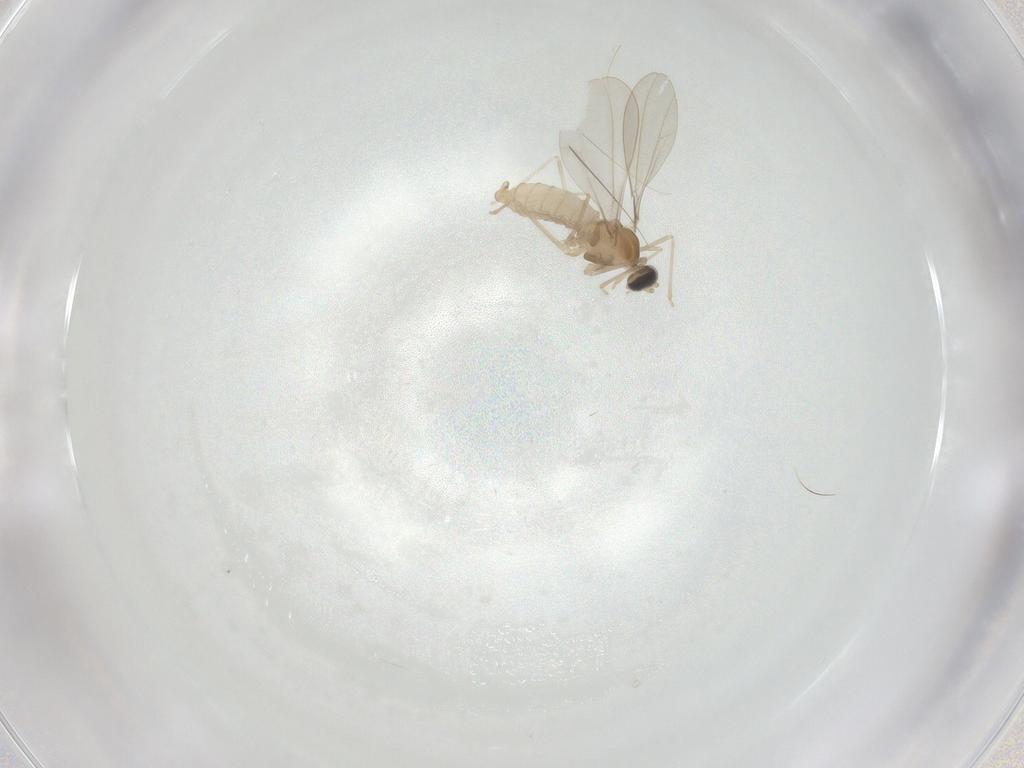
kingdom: Animalia
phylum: Arthropoda
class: Insecta
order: Diptera
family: Cecidomyiidae
